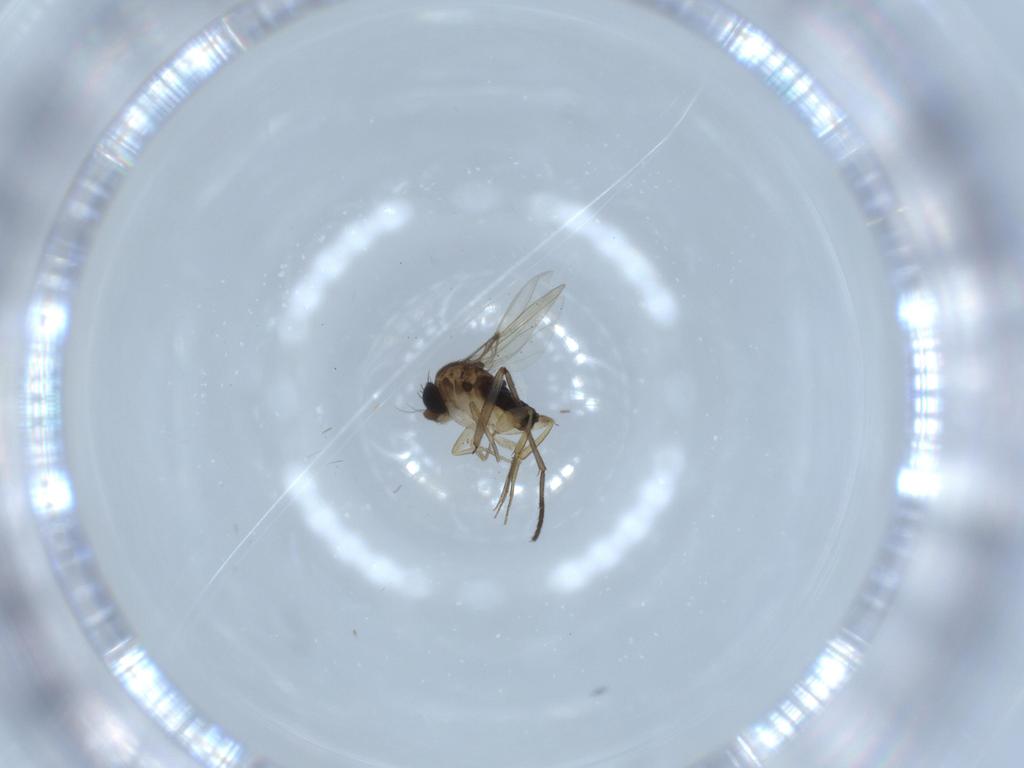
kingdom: Animalia
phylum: Arthropoda
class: Insecta
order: Diptera
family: Phoridae
